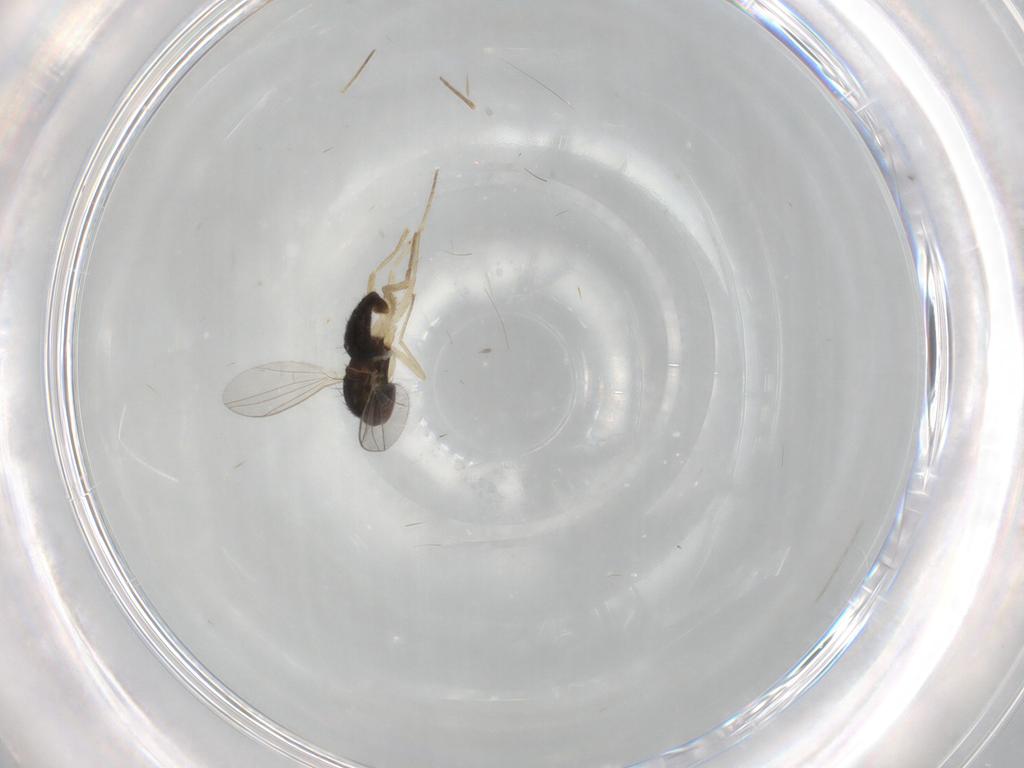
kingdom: Animalia
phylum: Arthropoda
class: Insecta
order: Diptera
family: Dolichopodidae
